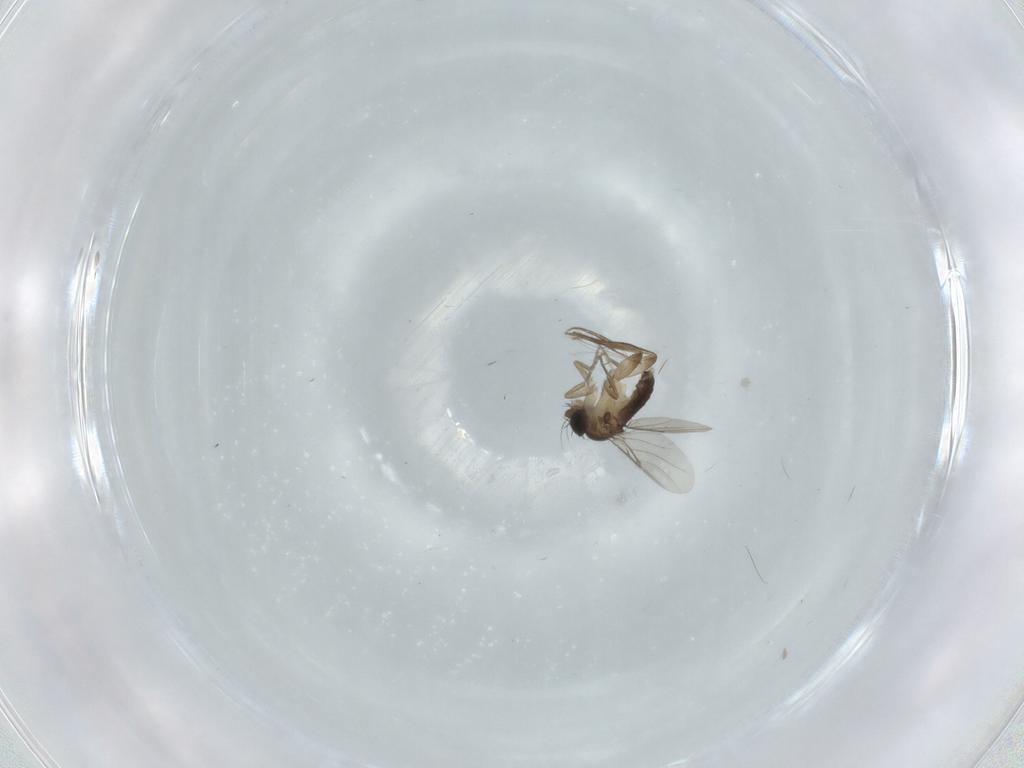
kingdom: Animalia
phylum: Arthropoda
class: Insecta
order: Diptera
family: Phoridae
